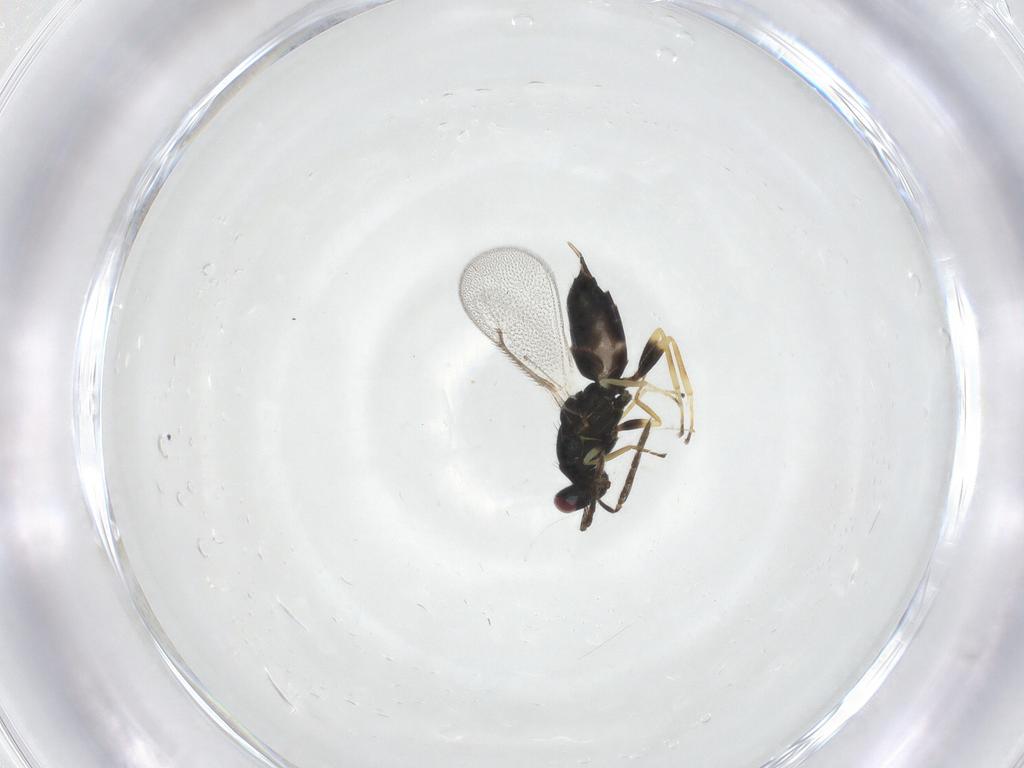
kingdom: Animalia
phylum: Arthropoda
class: Insecta
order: Hymenoptera
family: Eulophidae
